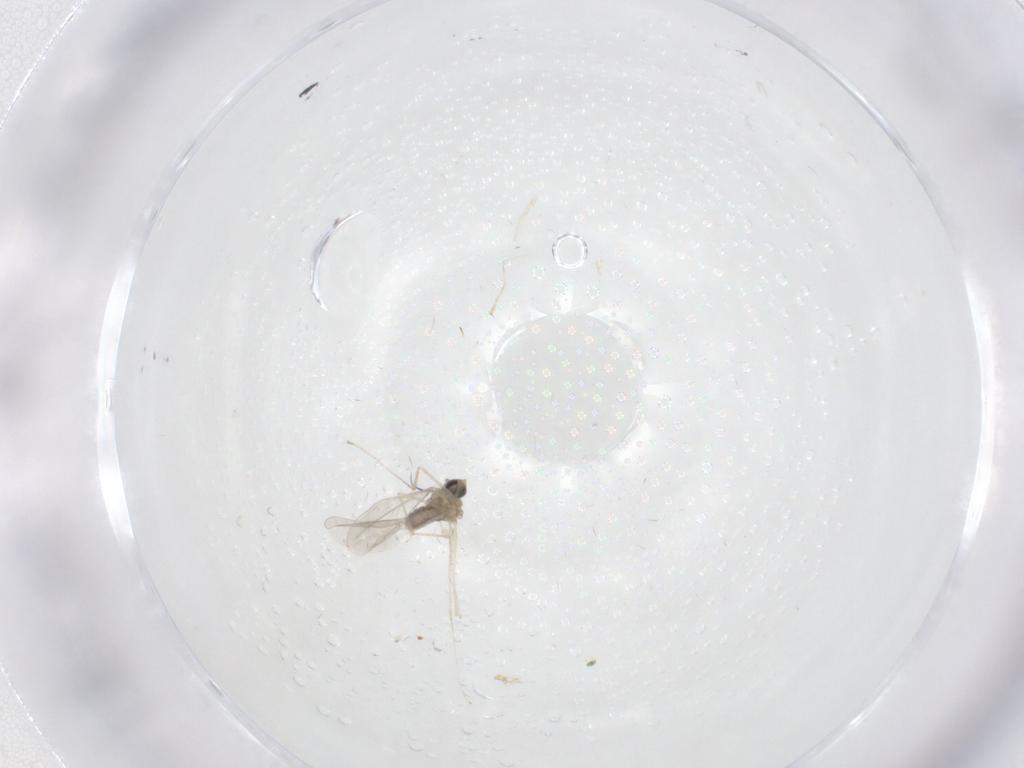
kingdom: Animalia
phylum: Arthropoda
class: Insecta
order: Diptera
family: Cecidomyiidae
